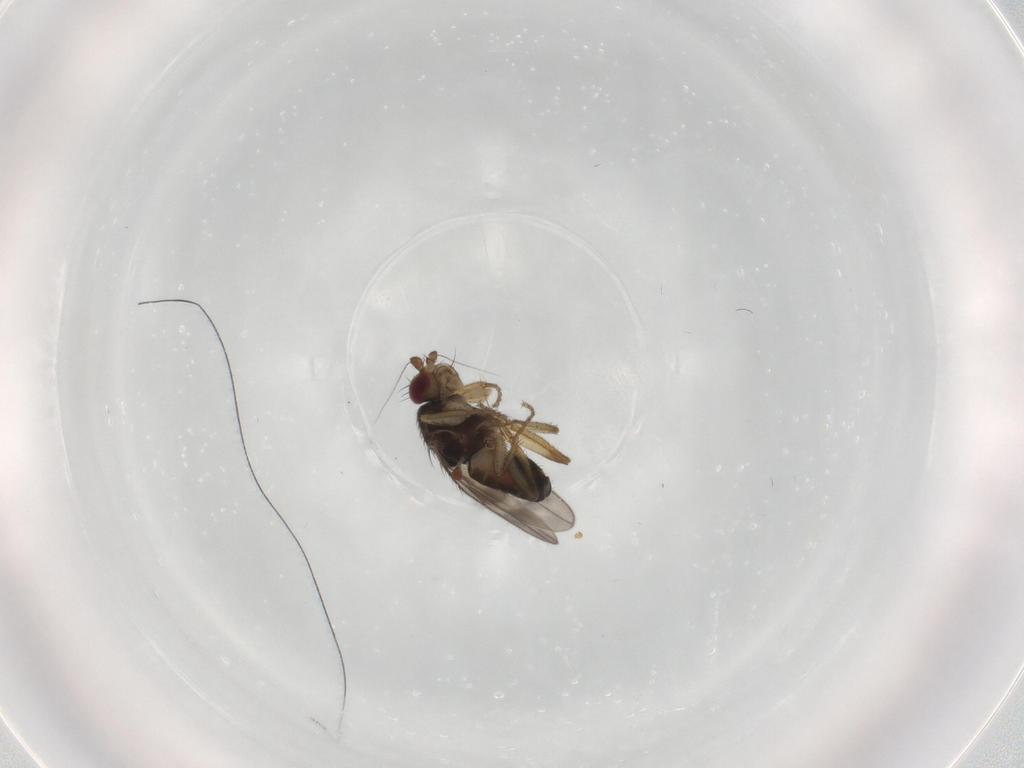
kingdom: Animalia
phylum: Arthropoda
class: Insecta
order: Diptera
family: Sphaeroceridae
